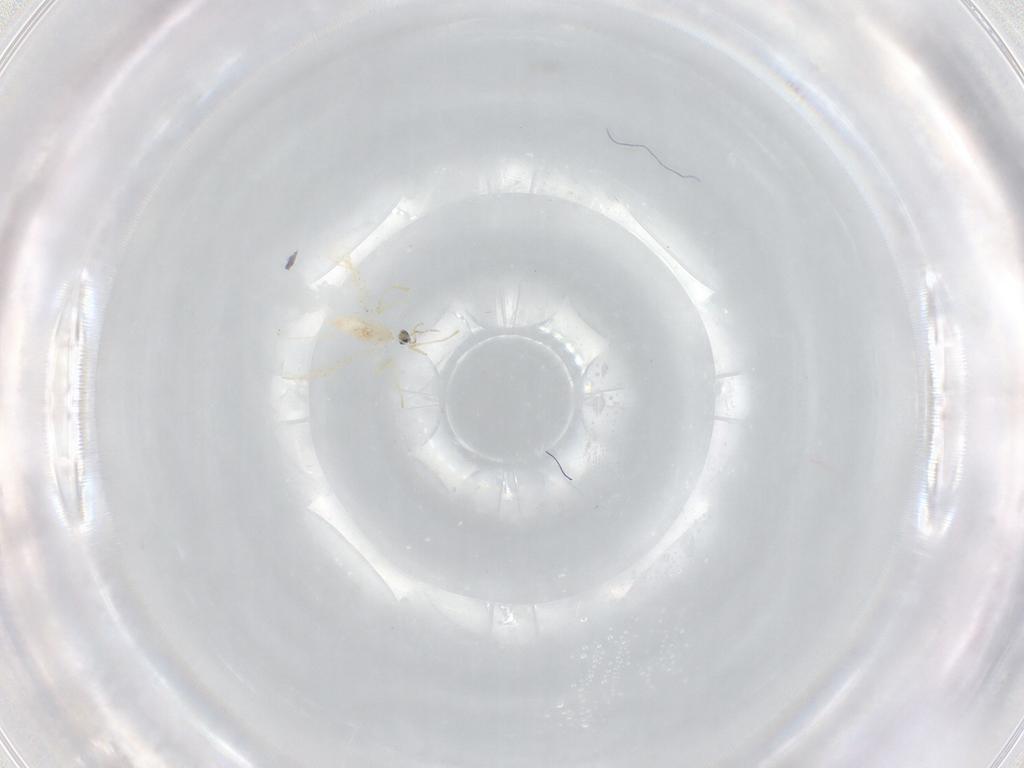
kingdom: Animalia
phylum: Arthropoda
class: Insecta
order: Diptera
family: Cecidomyiidae
